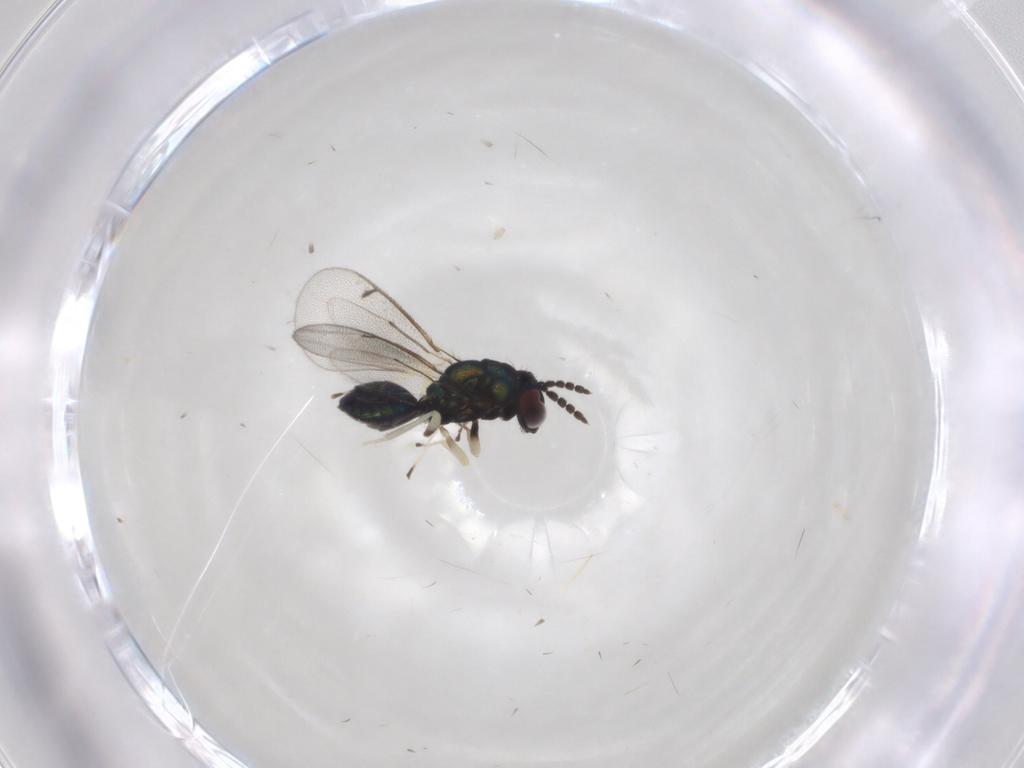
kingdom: Animalia
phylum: Arthropoda
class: Insecta
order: Hymenoptera
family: Eulophidae
